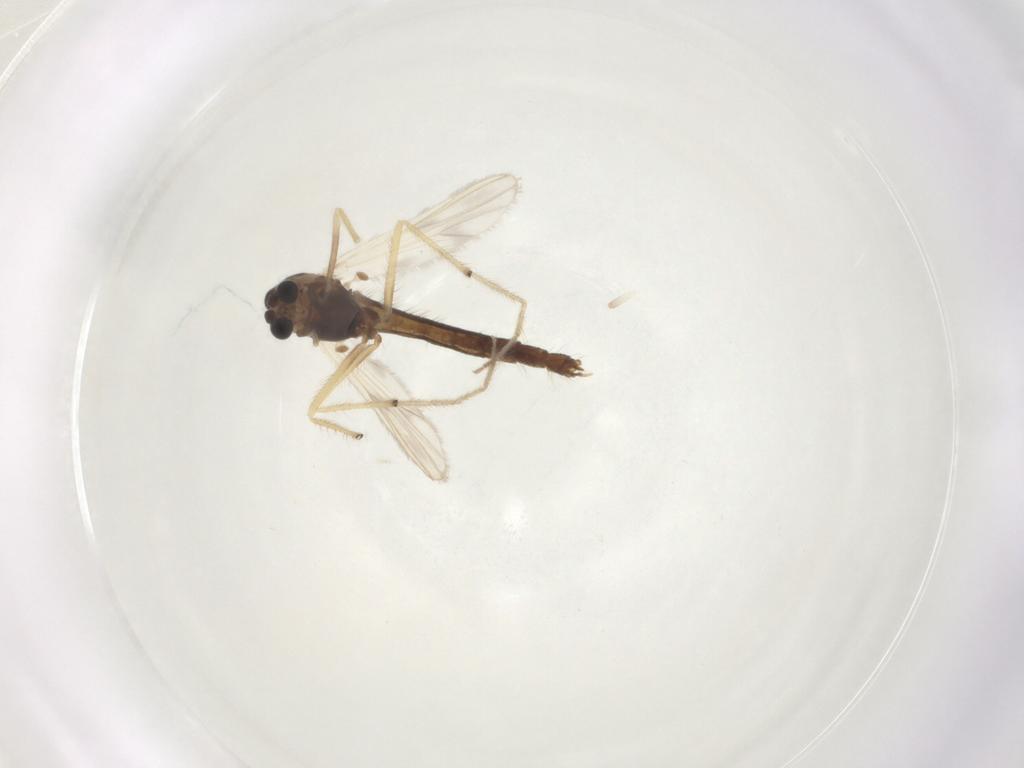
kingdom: Animalia
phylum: Arthropoda
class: Insecta
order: Diptera
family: Chironomidae
